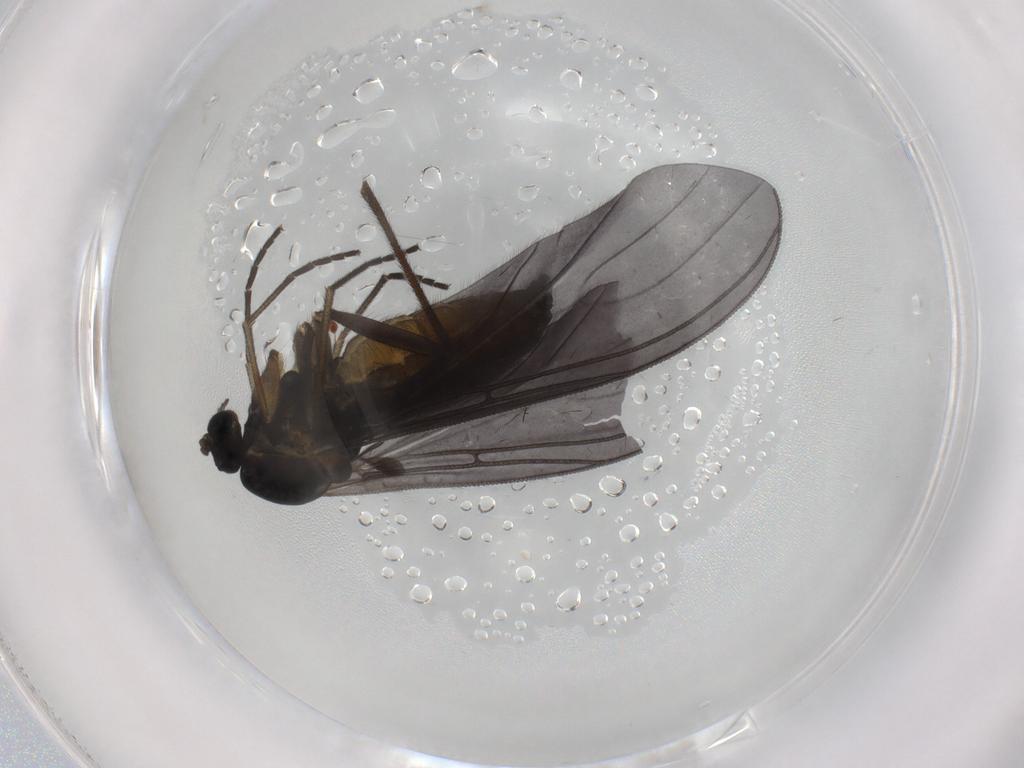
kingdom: Animalia
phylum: Arthropoda
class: Insecta
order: Diptera
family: Sciaridae
